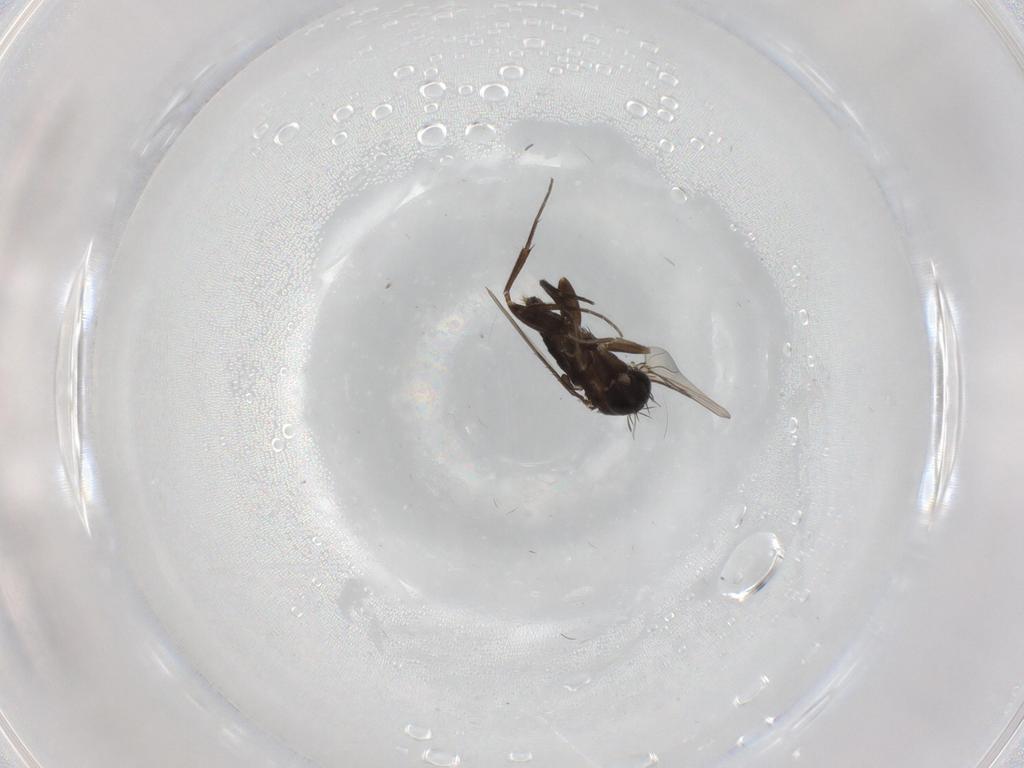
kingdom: Animalia
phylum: Arthropoda
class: Insecta
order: Diptera
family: Phoridae
